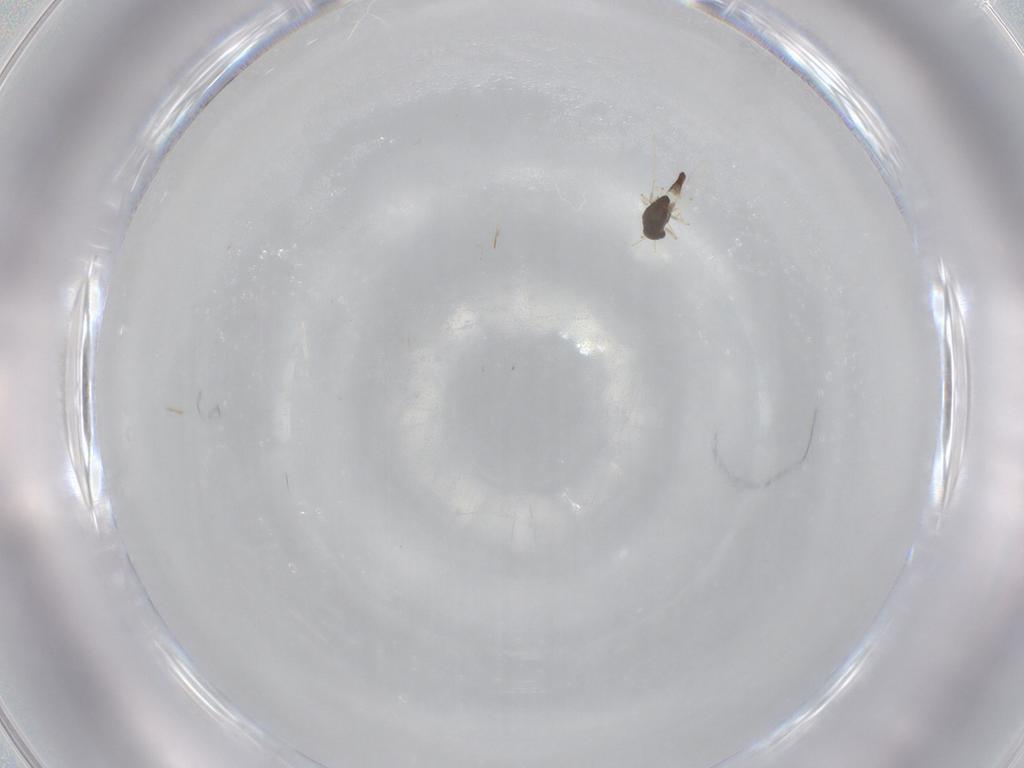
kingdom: Animalia
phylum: Arthropoda
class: Insecta
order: Diptera
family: Chironomidae
